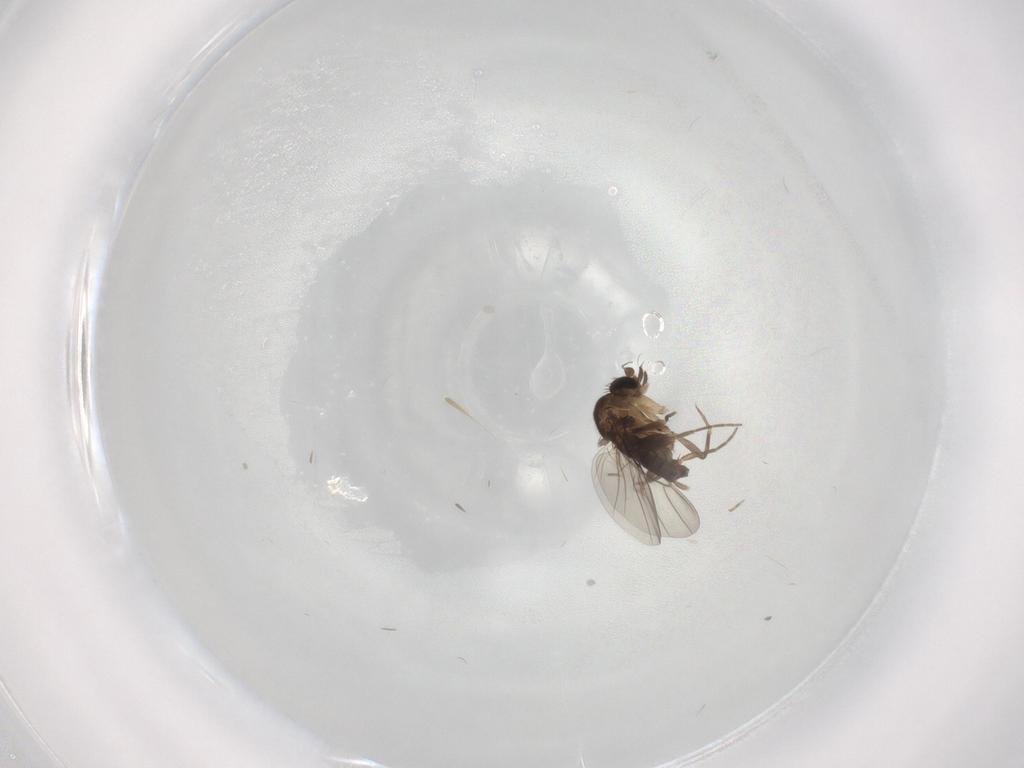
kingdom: Animalia
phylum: Arthropoda
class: Insecta
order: Diptera
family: Phoridae
